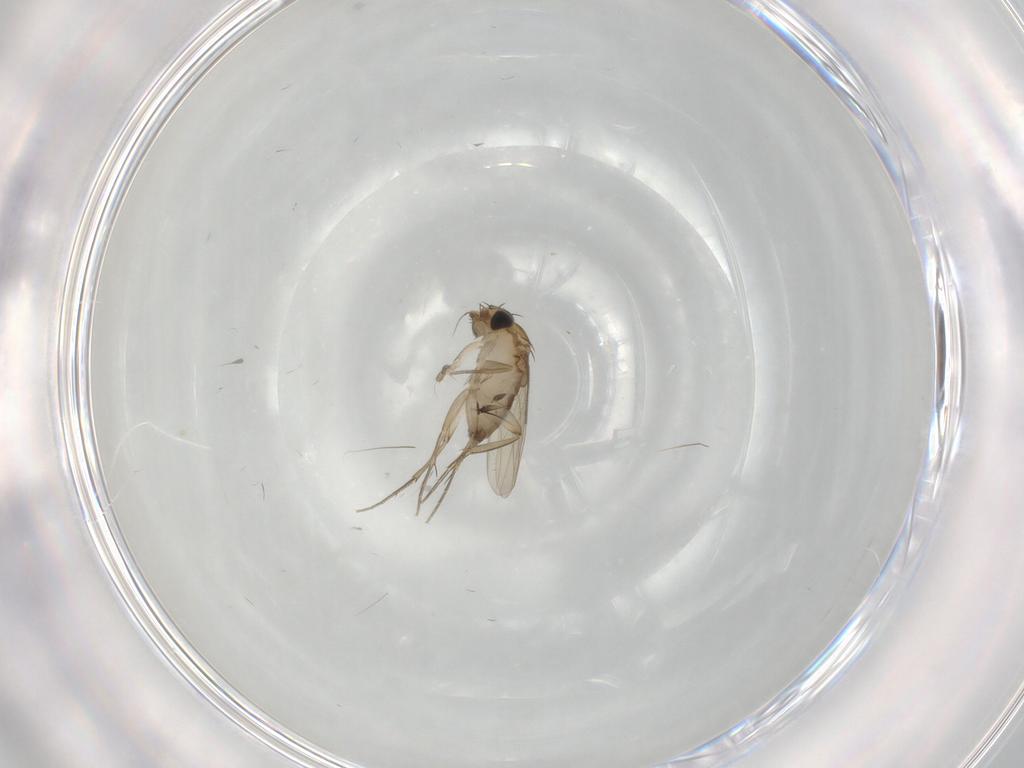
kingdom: Animalia
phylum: Arthropoda
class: Insecta
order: Diptera
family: Phoridae
